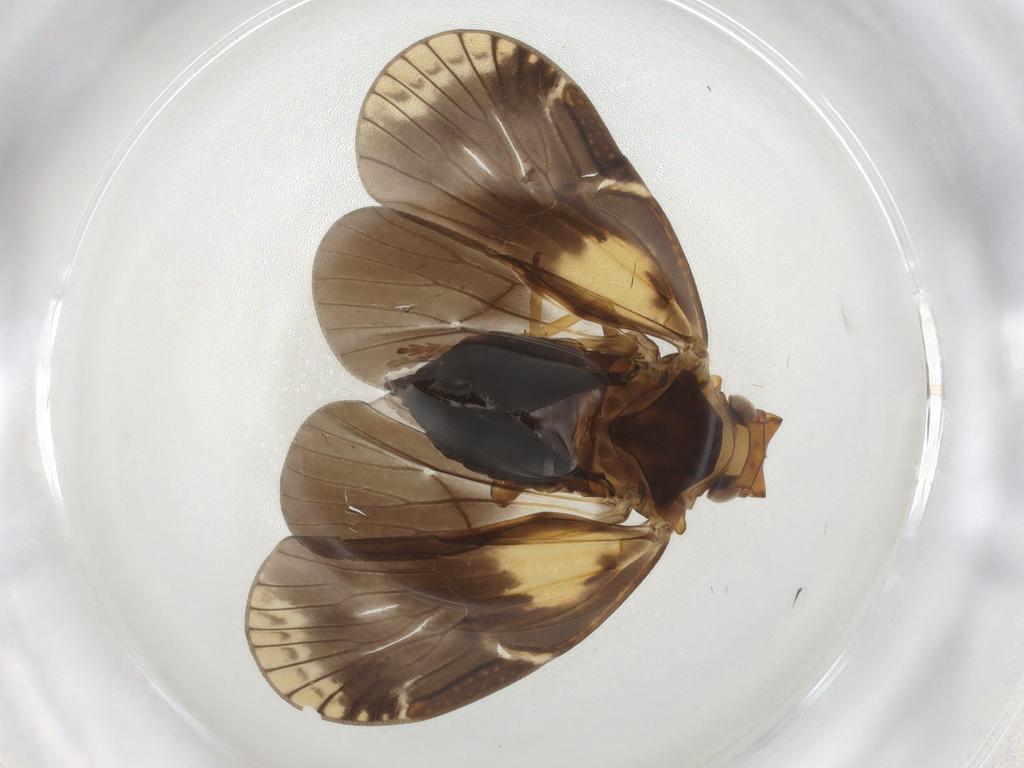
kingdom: Animalia
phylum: Arthropoda
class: Insecta
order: Hemiptera
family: Cixiidae
